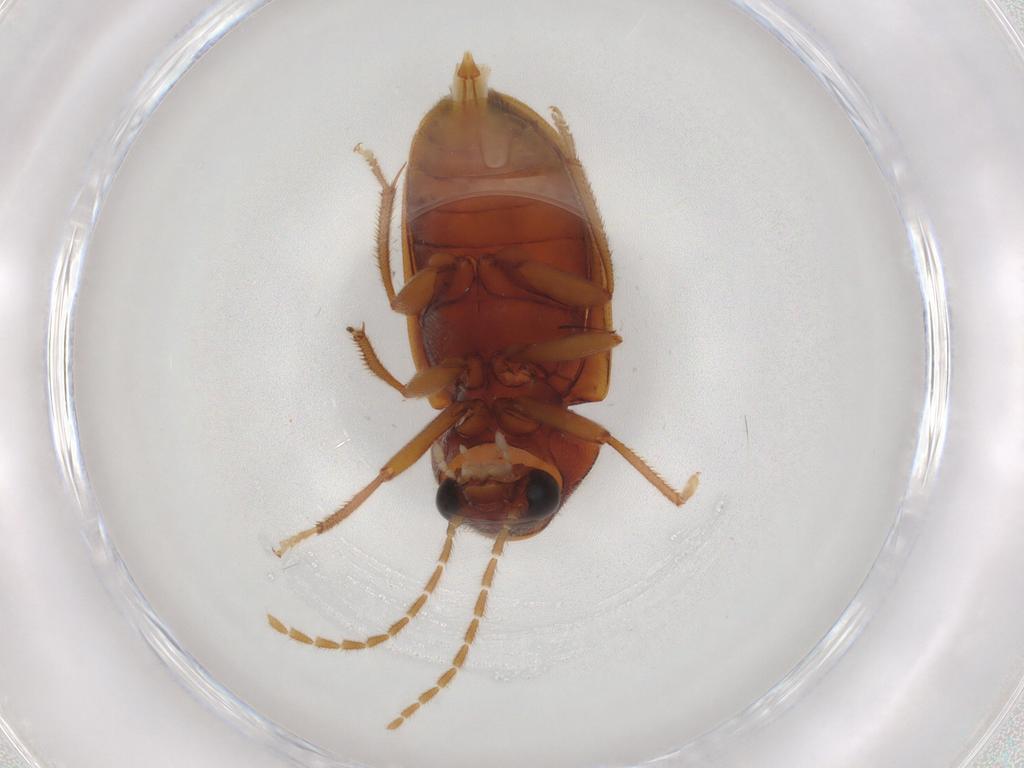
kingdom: Animalia
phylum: Arthropoda
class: Insecta
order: Coleoptera
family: Ptilodactylidae
